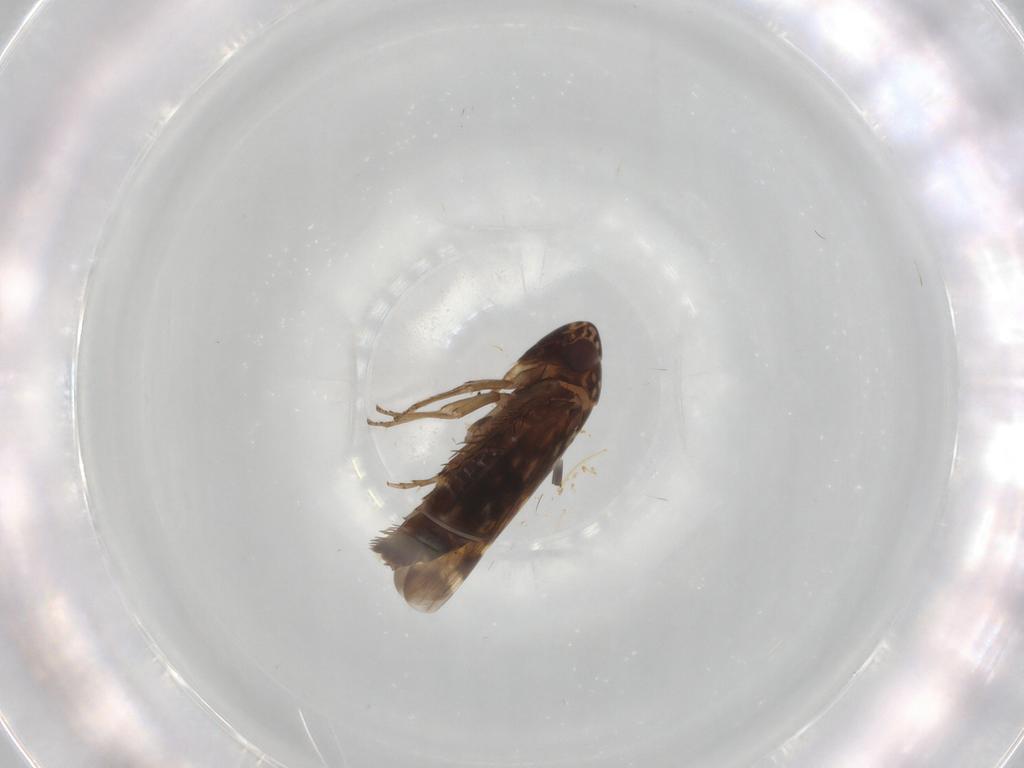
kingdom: Animalia
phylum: Arthropoda
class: Insecta
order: Hemiptera
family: Cicadellidae
